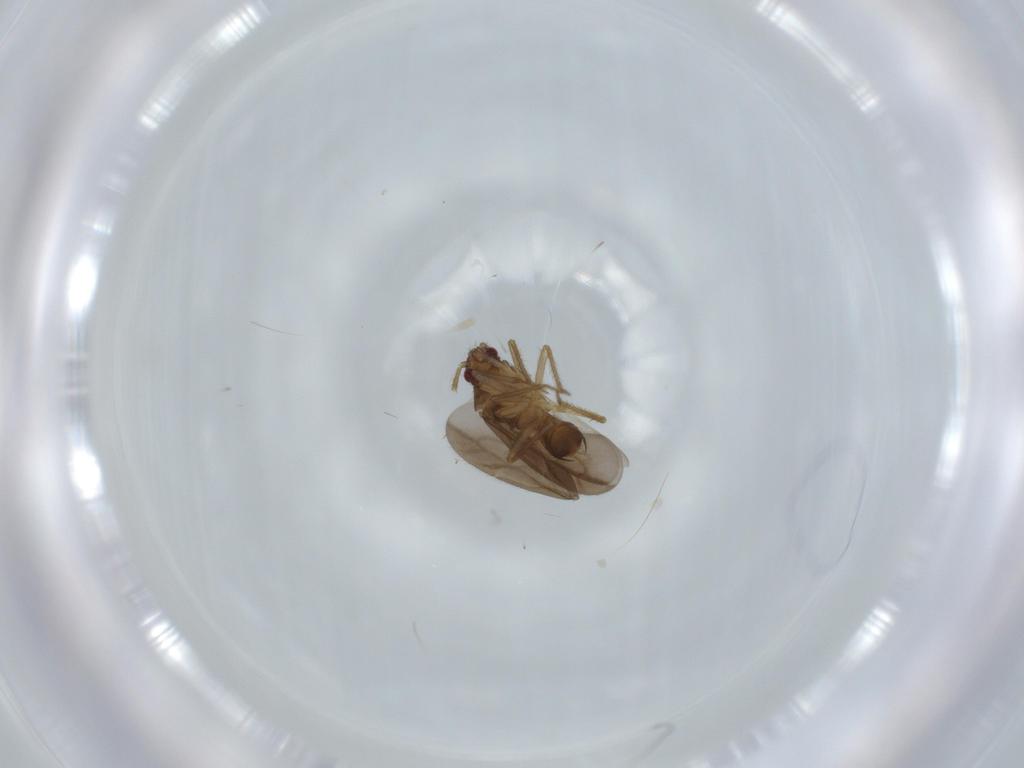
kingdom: Animalia
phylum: Arthropoda
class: Insecta
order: Hemiptera
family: Ceratocombidae
